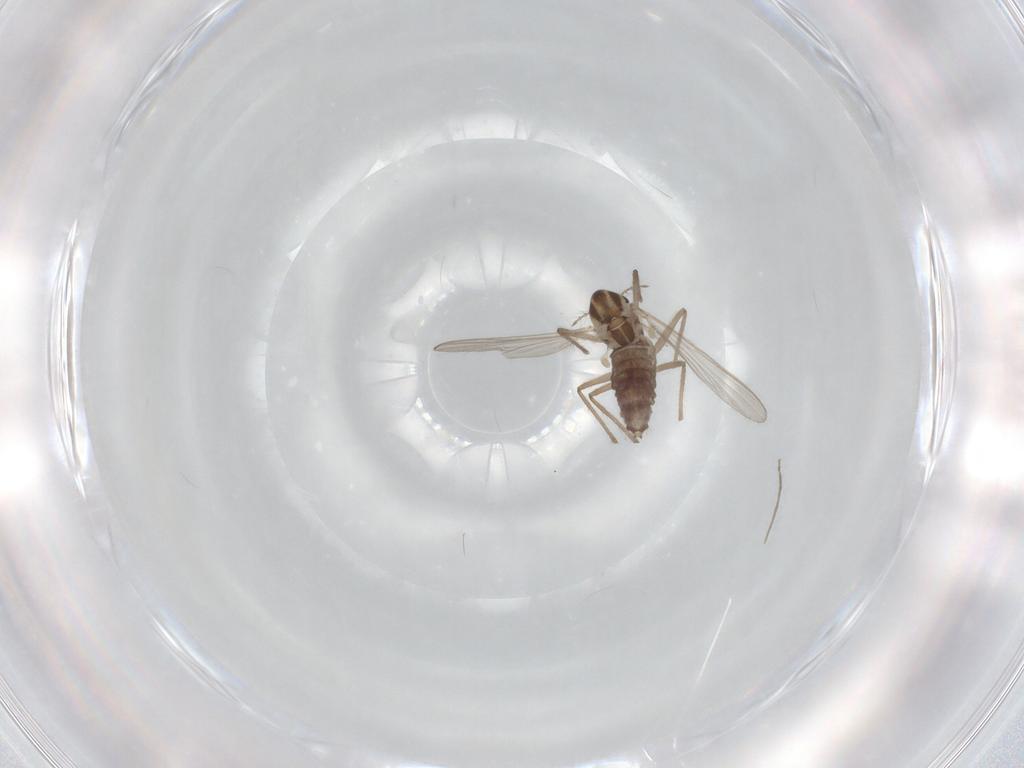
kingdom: Animalia
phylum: Arthropoda
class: Insecta
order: Diptera
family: Chironomidae
